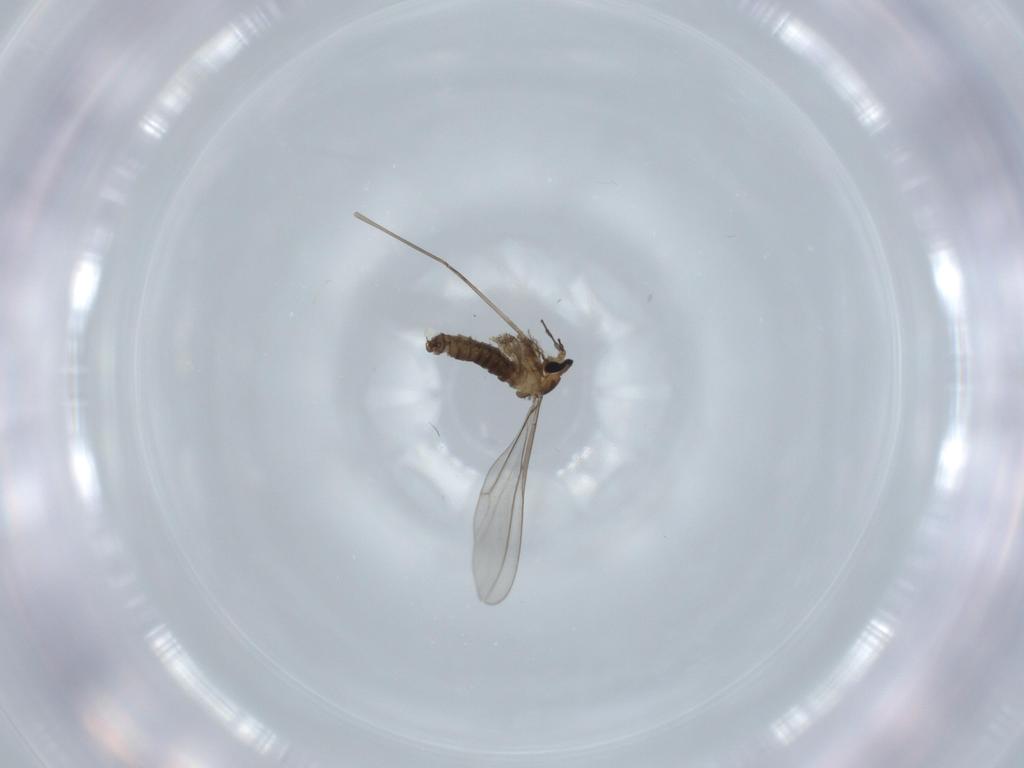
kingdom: Animalia
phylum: Arthropoda
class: Insecta
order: Diptera
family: Cecidomyiidae
